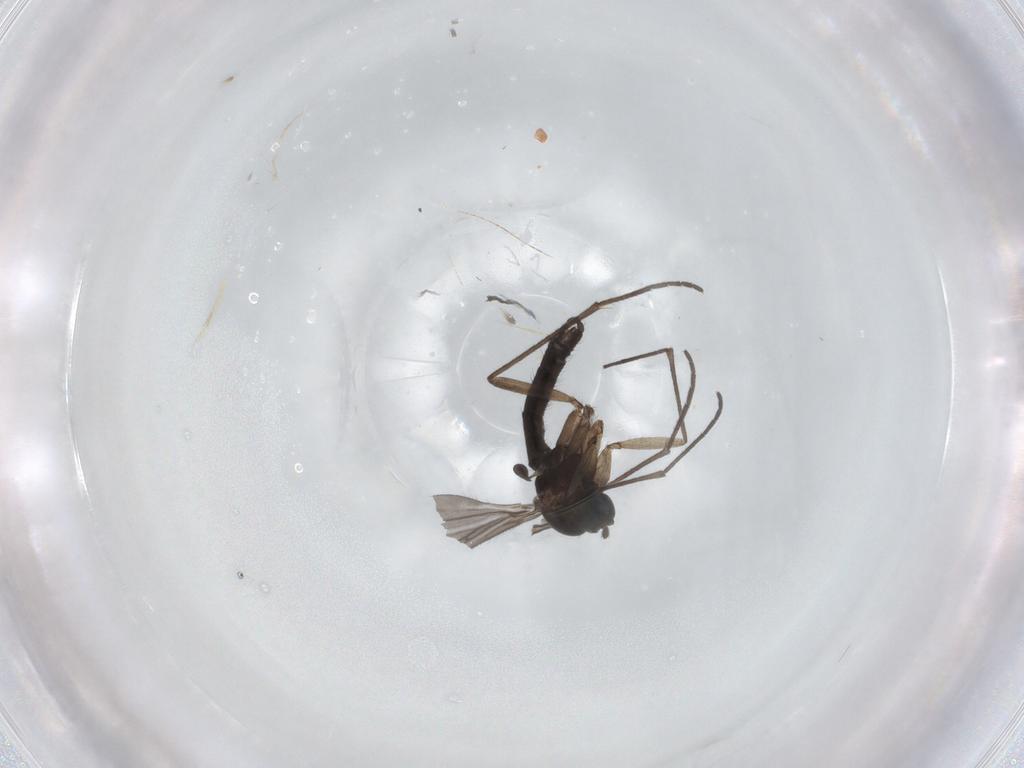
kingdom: Animalia
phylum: Arthropoda
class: Insecta
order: Diptera
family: Sciaridae
